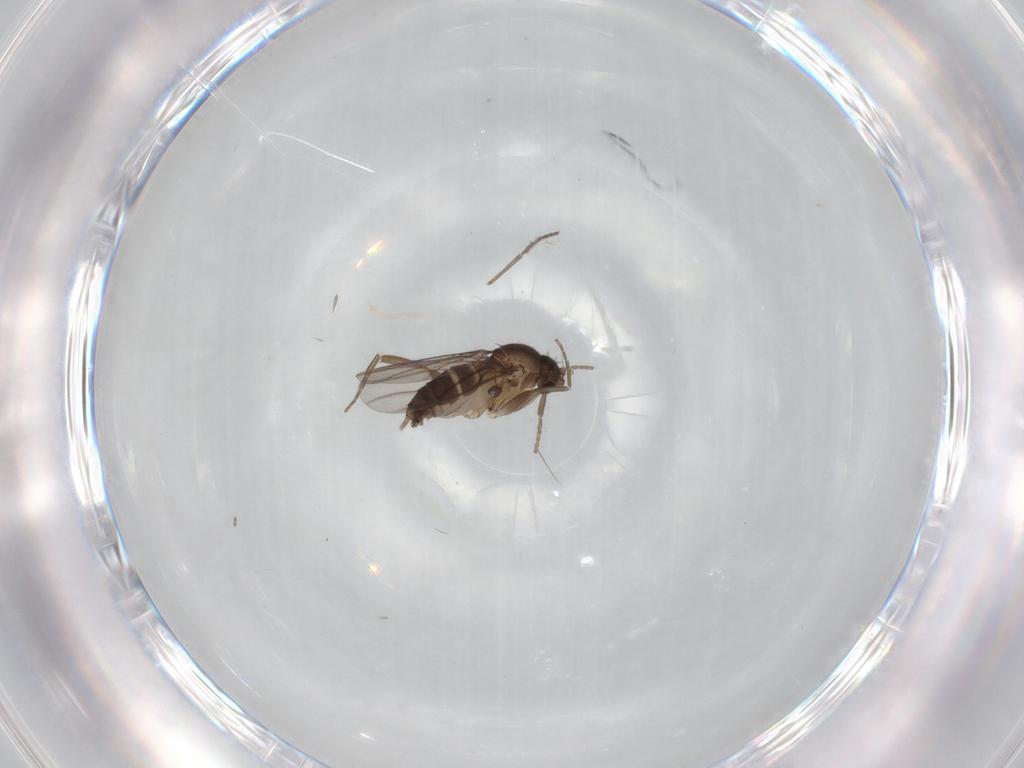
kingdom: Animalia
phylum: Arthropoda
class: Insecta
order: Diptera
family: Phoridae
